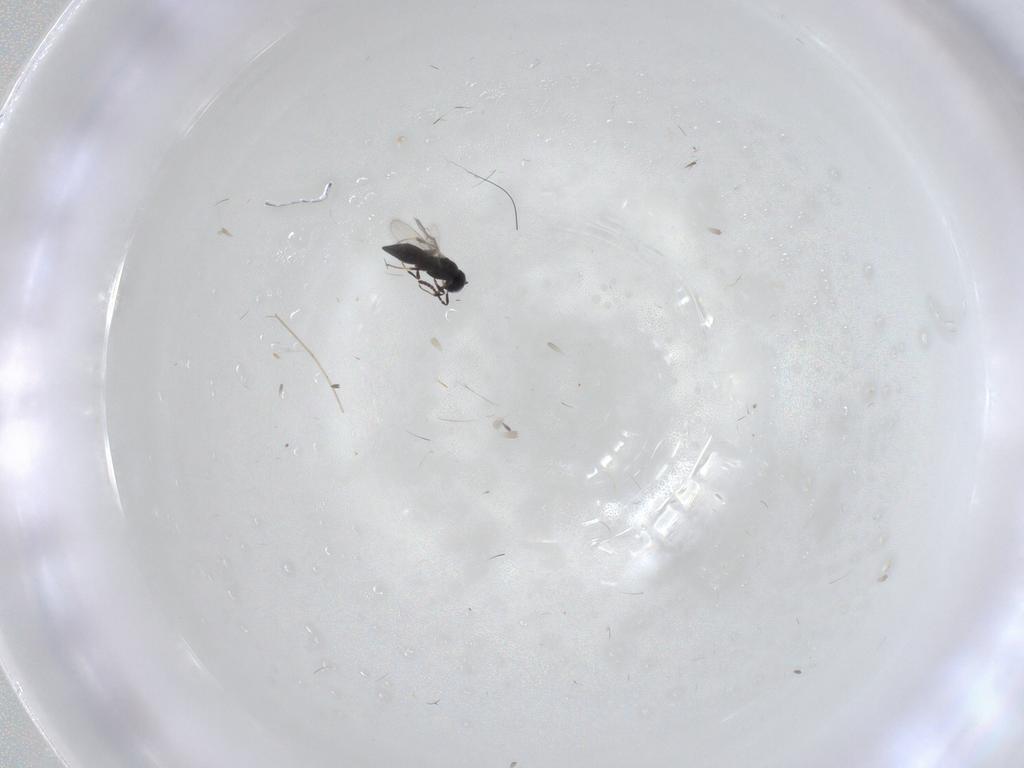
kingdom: Animalia
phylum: Arthropoda
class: Insecta
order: Hymenoptera
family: Scelionidae
